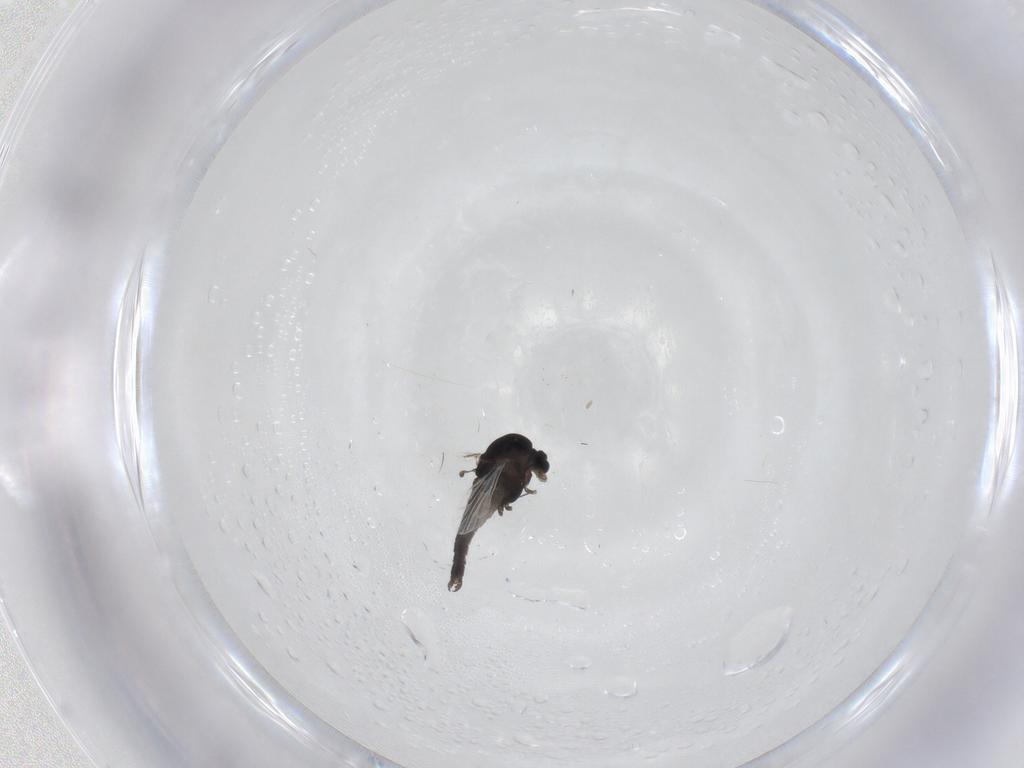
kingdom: Animalia
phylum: Arthropoda
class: Insecta
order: Diptera
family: Chironomidae
